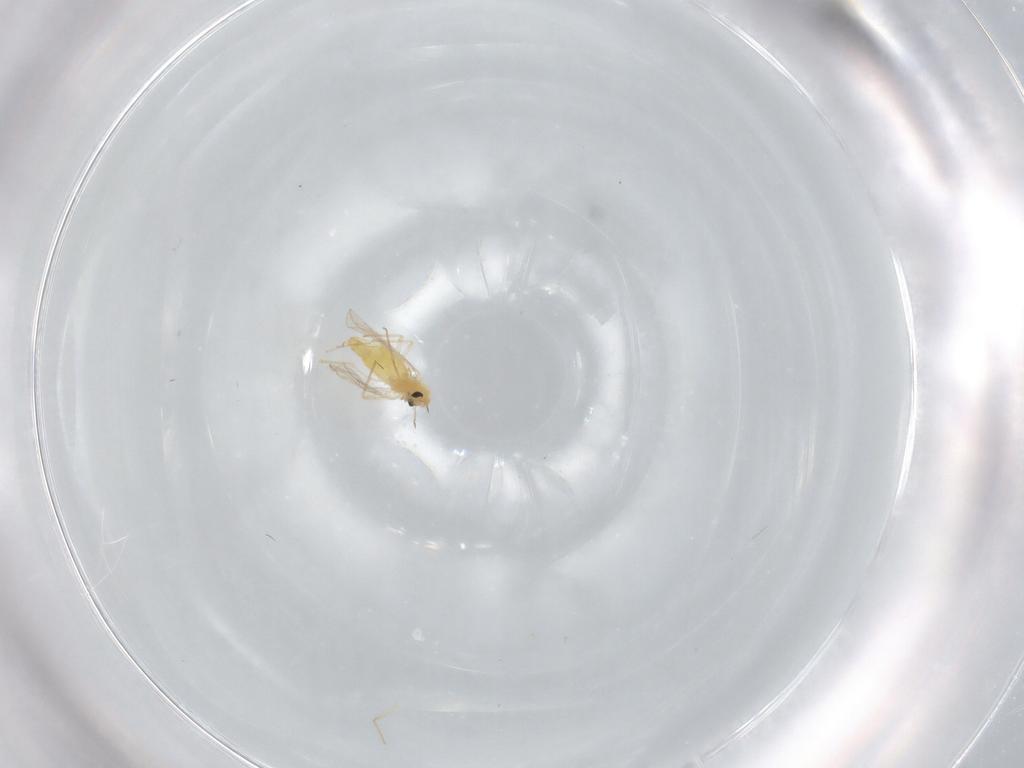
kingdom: Animalia
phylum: Arthropoda
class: Insecta
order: Diptera
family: Chironomidae
